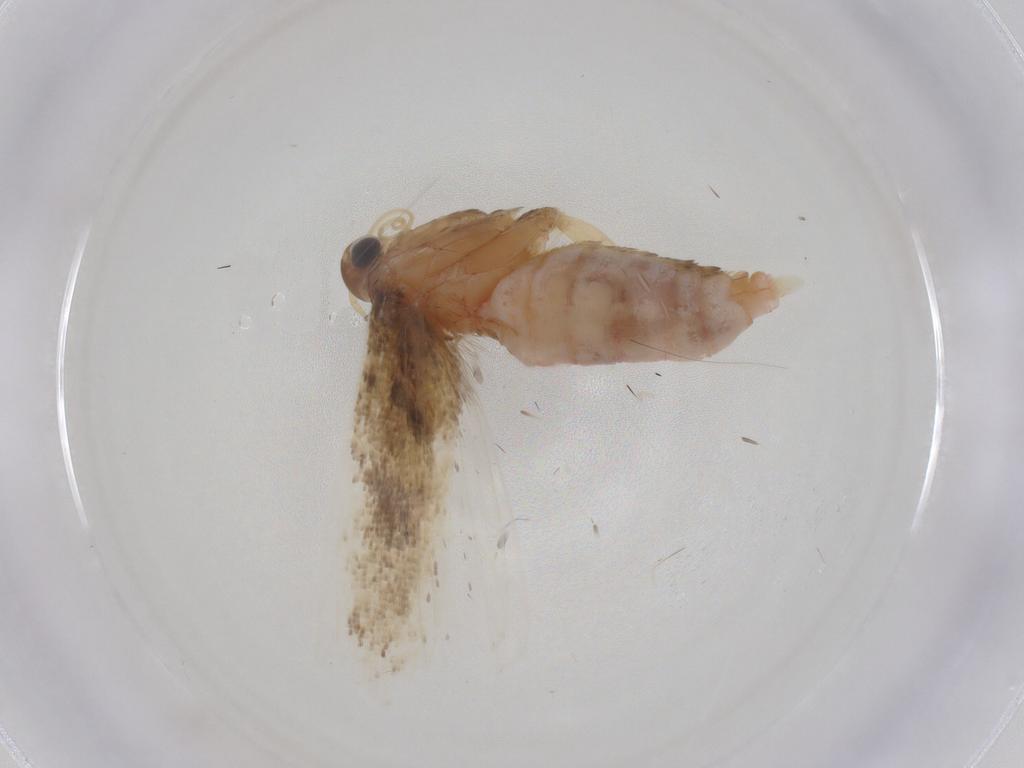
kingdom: Animalia
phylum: Arthropoda
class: Insecta
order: Lepidoptera
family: Gelechiidae
